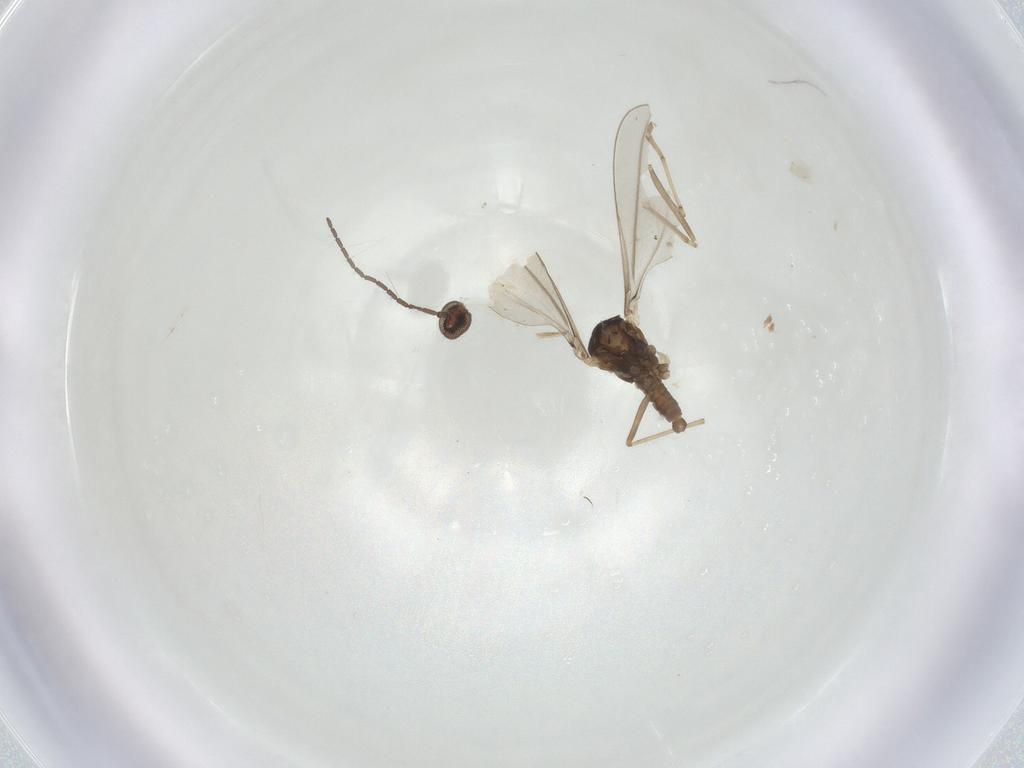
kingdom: Animalia
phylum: Arthropoda
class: Insecta
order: Diptera
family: Cecidomyiidae
